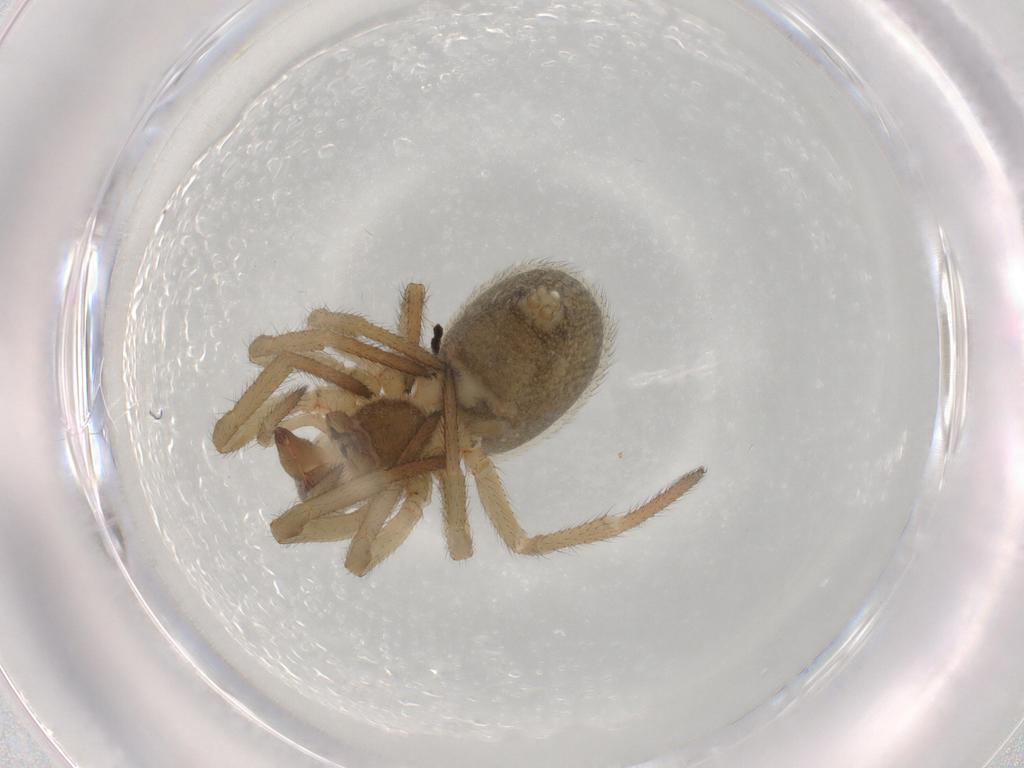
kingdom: Animalia
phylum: Arthropoda
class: Arachnida
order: Araneae
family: Theridiidae
